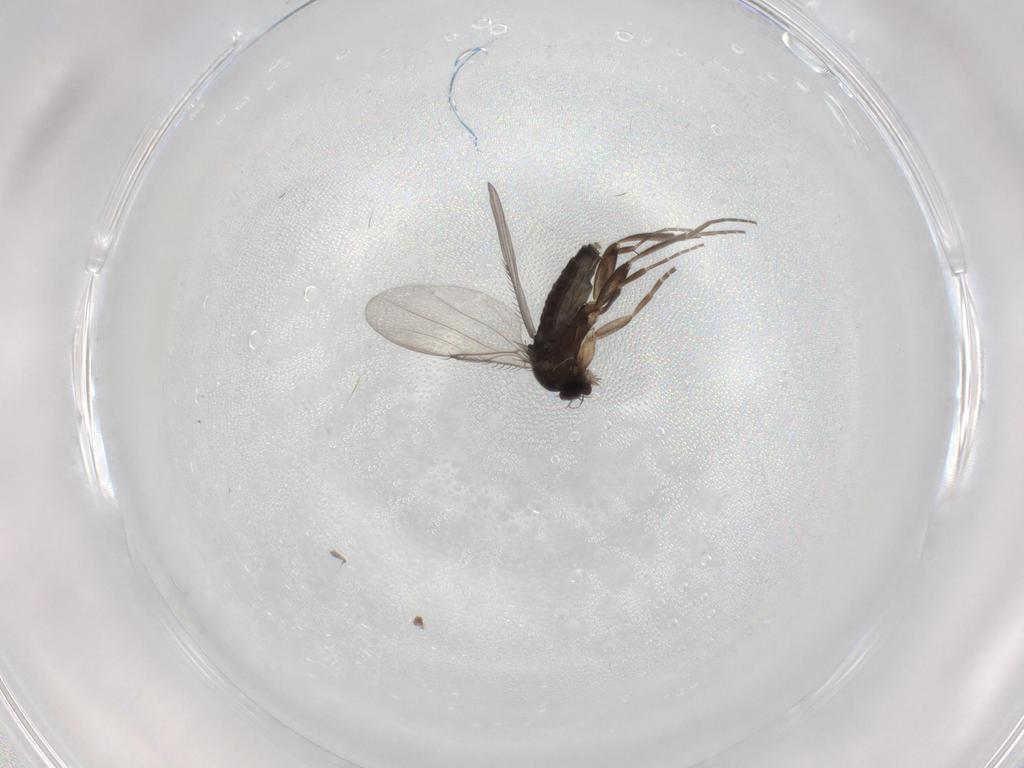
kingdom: Animalia
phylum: Arthropoda
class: Insecta
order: Diptera
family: Phoridae
